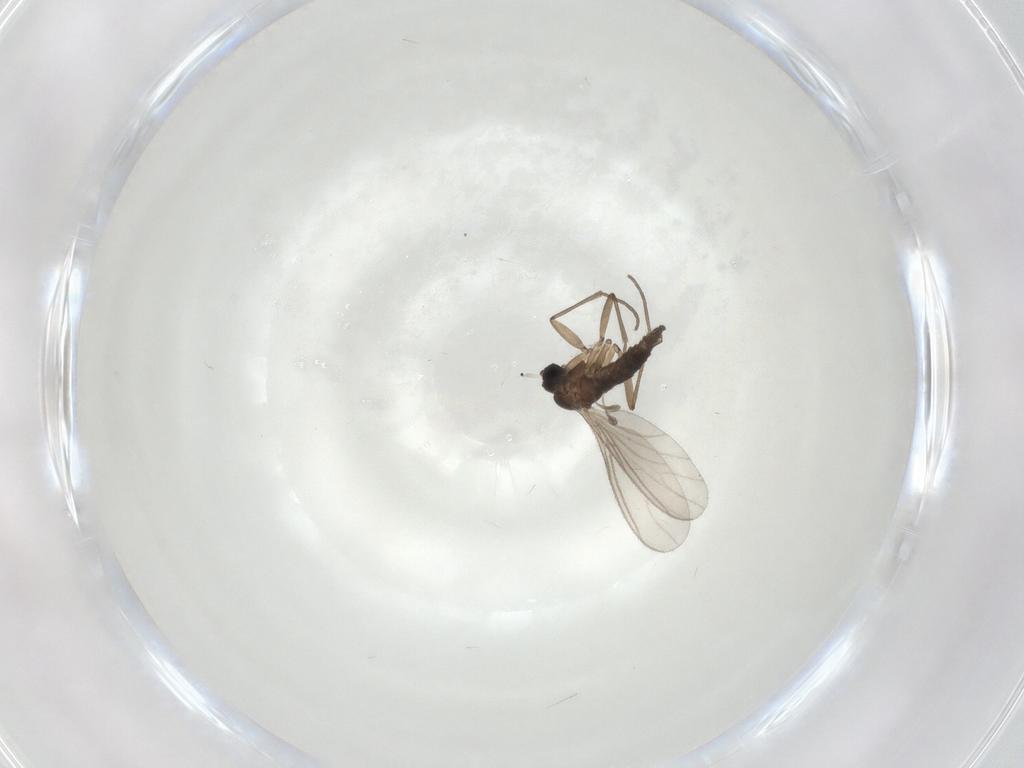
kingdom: Animalia
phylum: Arthropoda
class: Insecta
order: Diptera
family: Sciaridae
